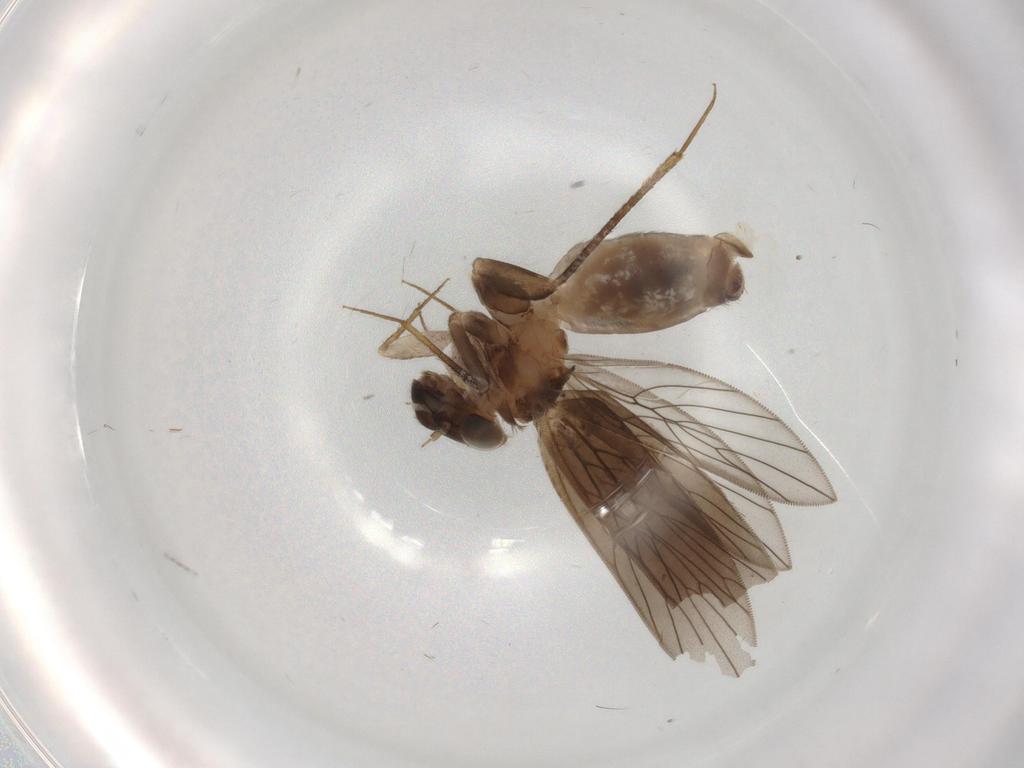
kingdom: Animalia
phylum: Arthropoda
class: Insecta
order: Psocodea
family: Lepidopsocidae
